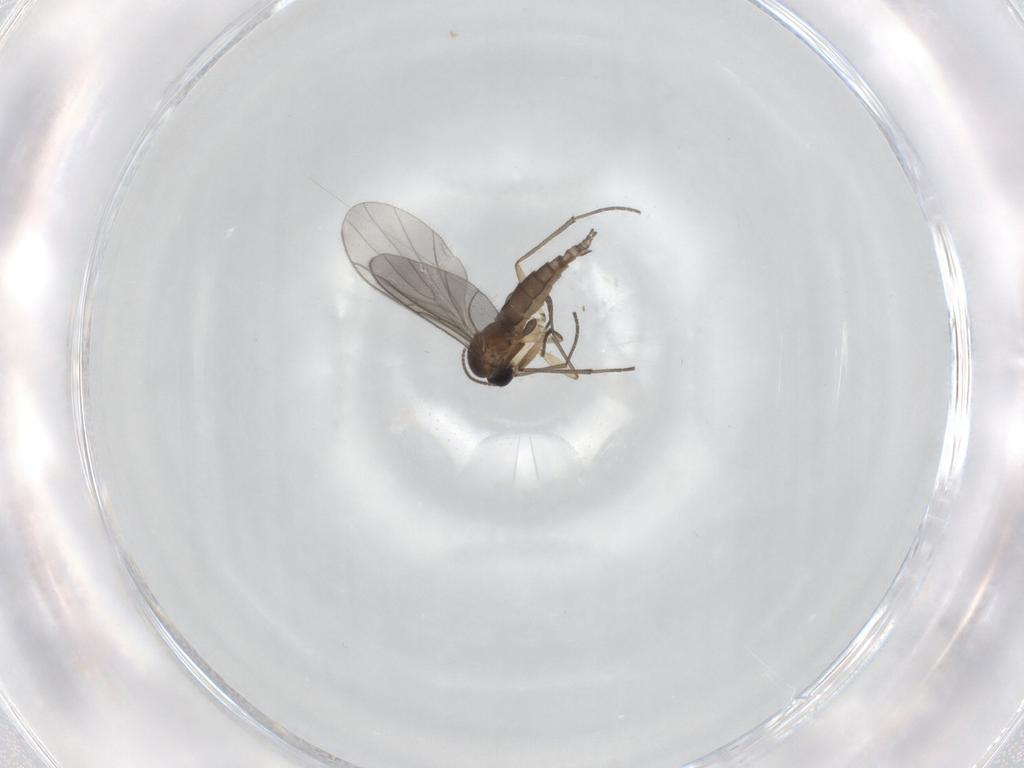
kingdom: Animalia
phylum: Arthropoda
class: Insecta
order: Diptera
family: Sciaridae
